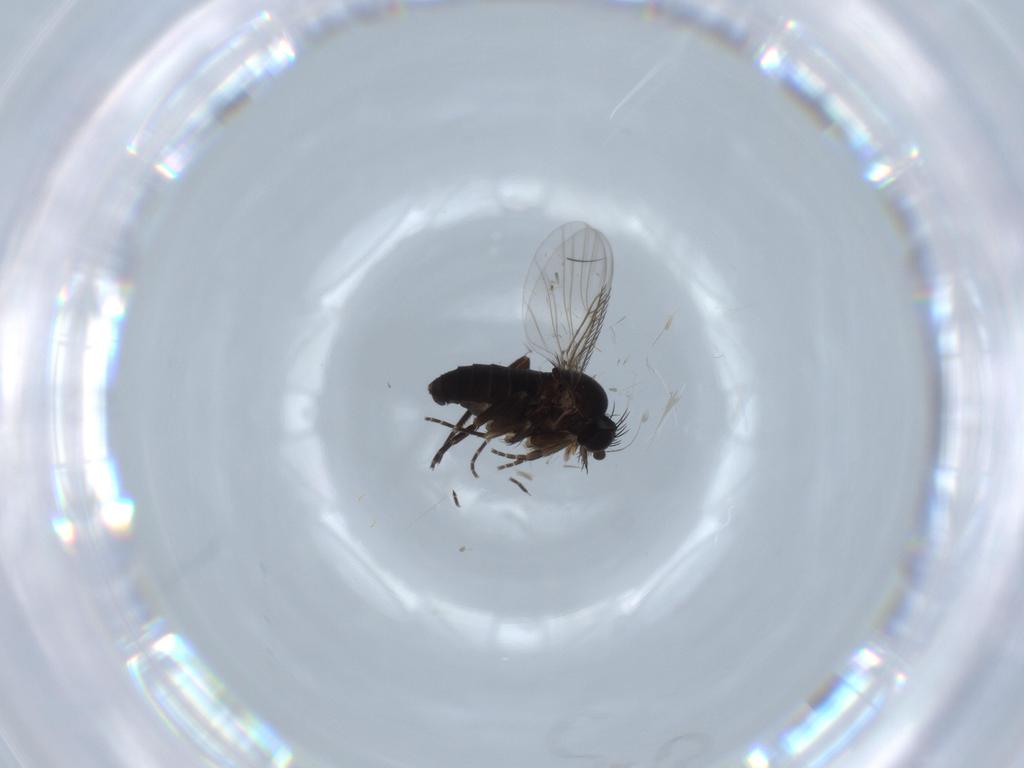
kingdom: Animalia
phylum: Arthropoda
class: Insecta
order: Diptera
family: Phoridae
